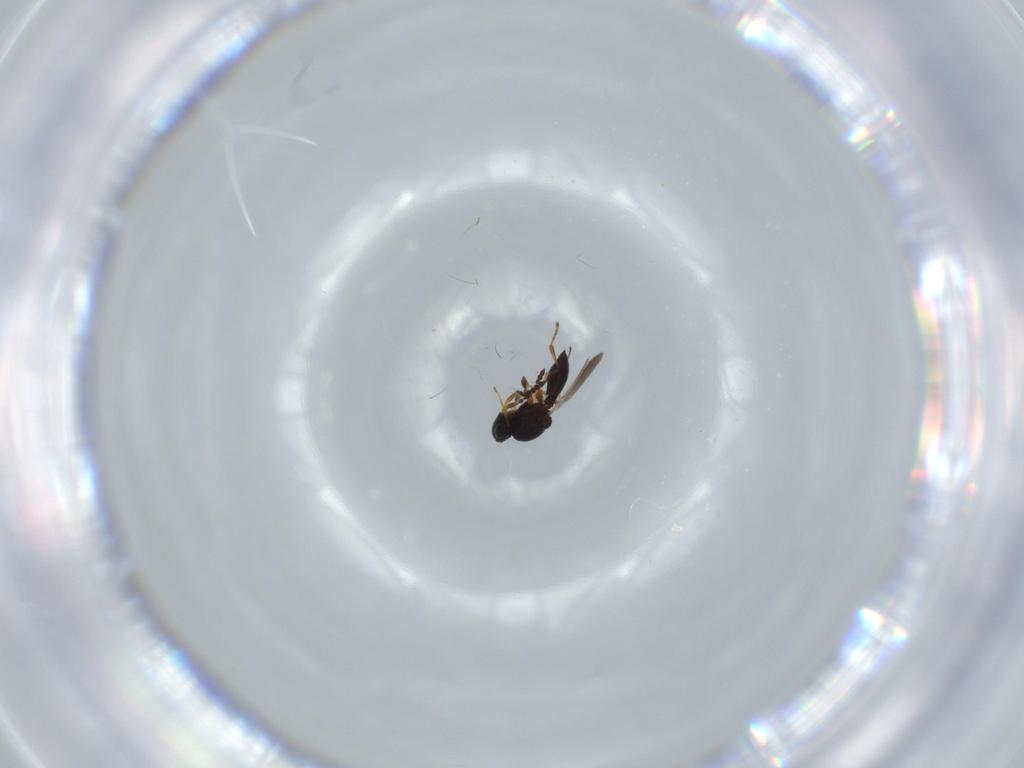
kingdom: Animalia
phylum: Arthropoda
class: Insecta
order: Hymenoptera
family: Platygastridae
